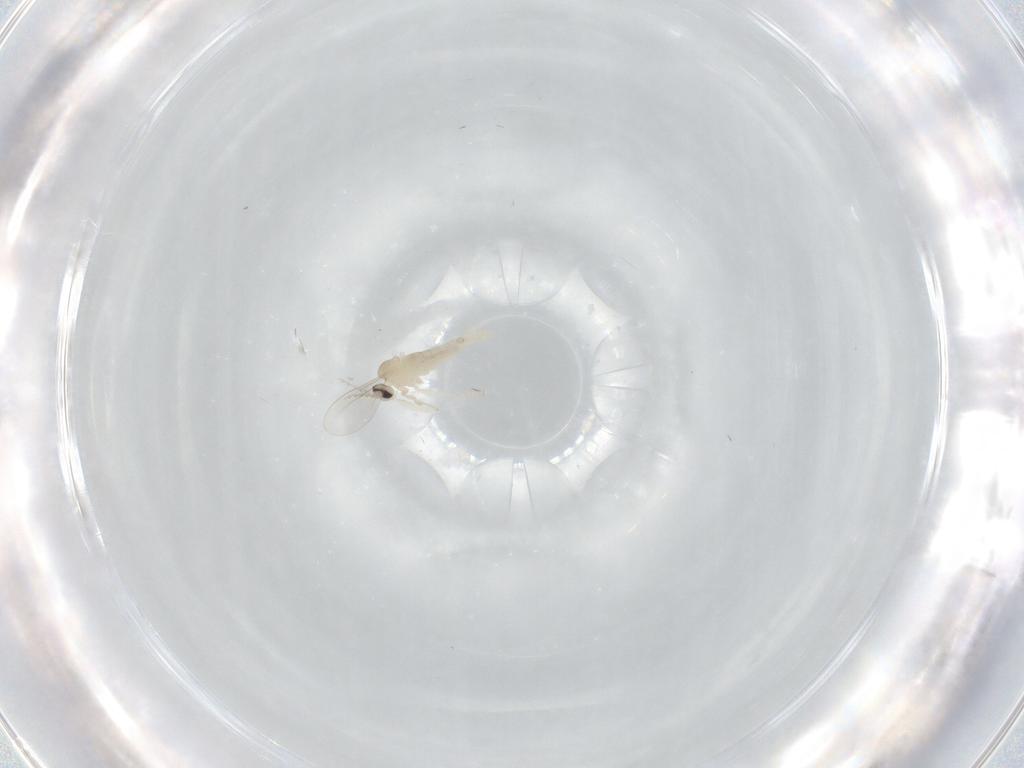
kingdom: Animalia
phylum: Arthropoda
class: Insecta
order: Diptera
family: Cecidomyiidae
